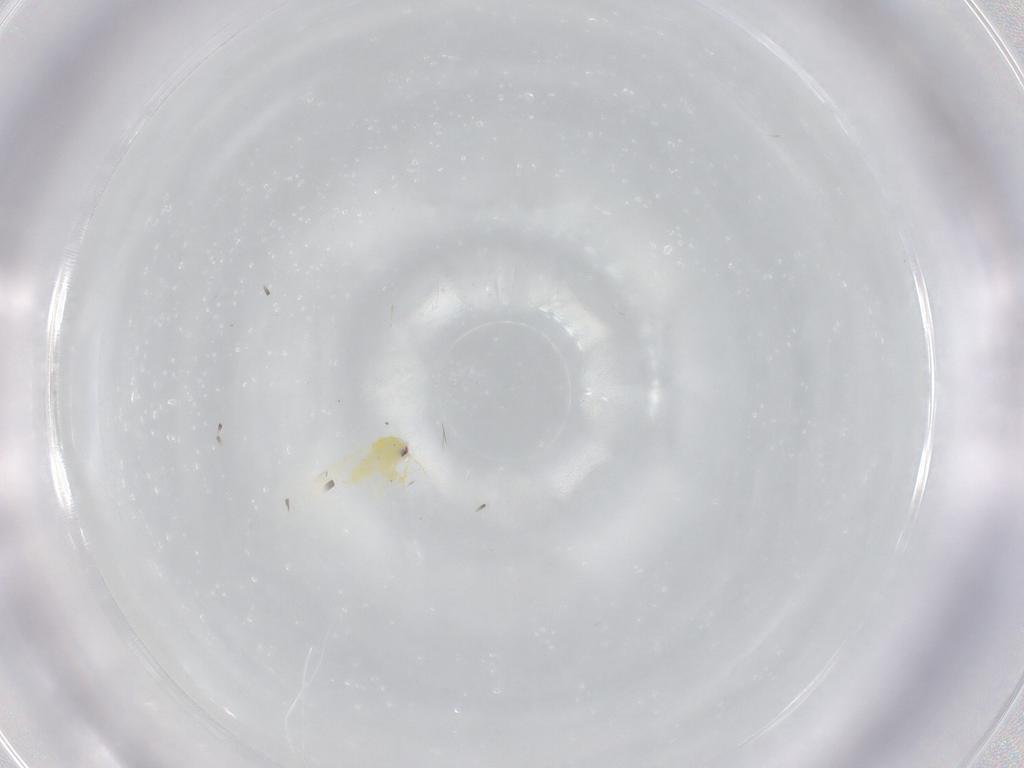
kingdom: Animalia
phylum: Arthropoda
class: Insecta
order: Hemiptera
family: Aleyrodidae
